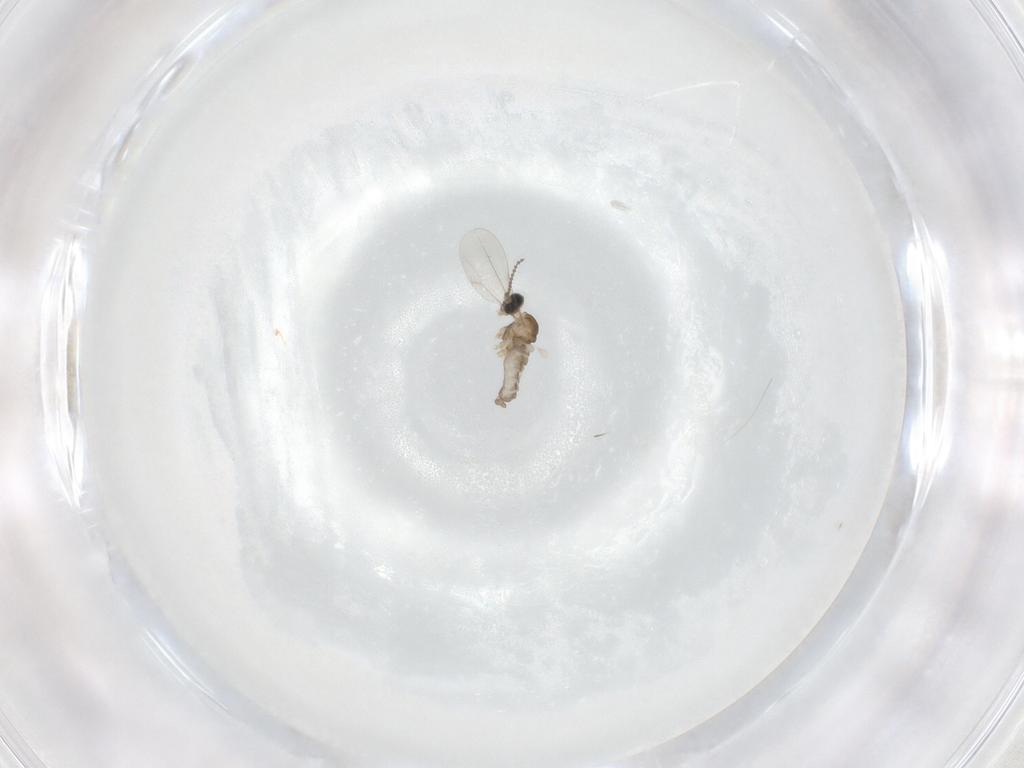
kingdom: Animalia
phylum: Arthropoda
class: Insecta
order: Diptera
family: Cecidomyiidae
